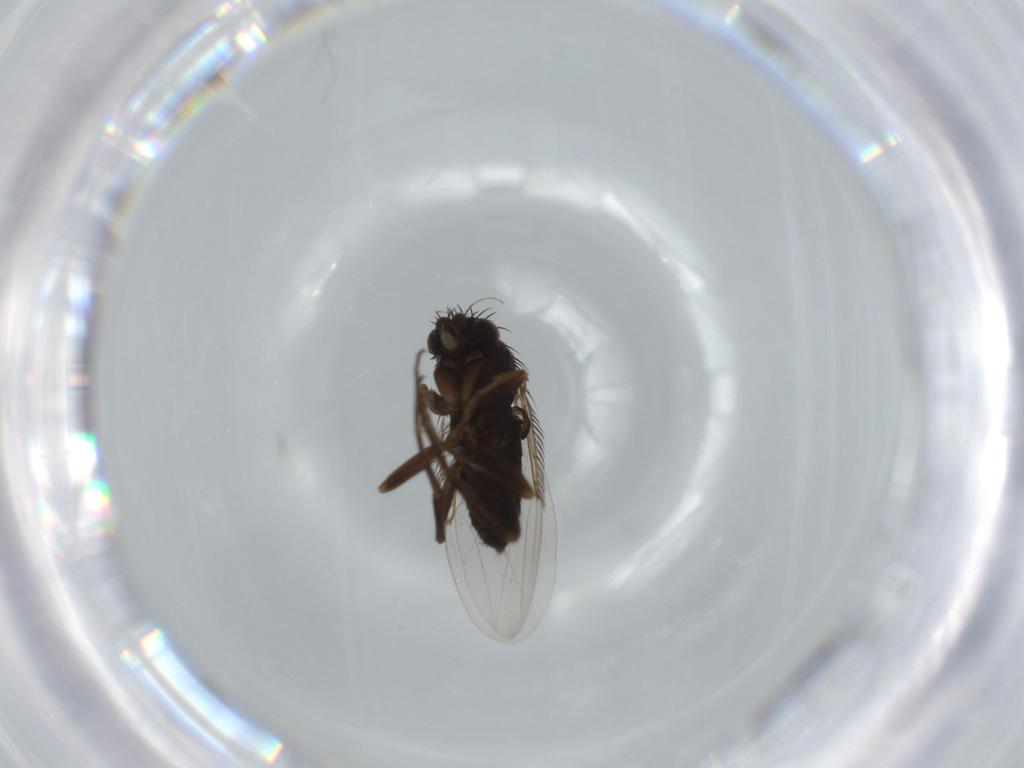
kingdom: Animalia
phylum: Arthropoda
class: Insecta
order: Diptera
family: Phoridae
